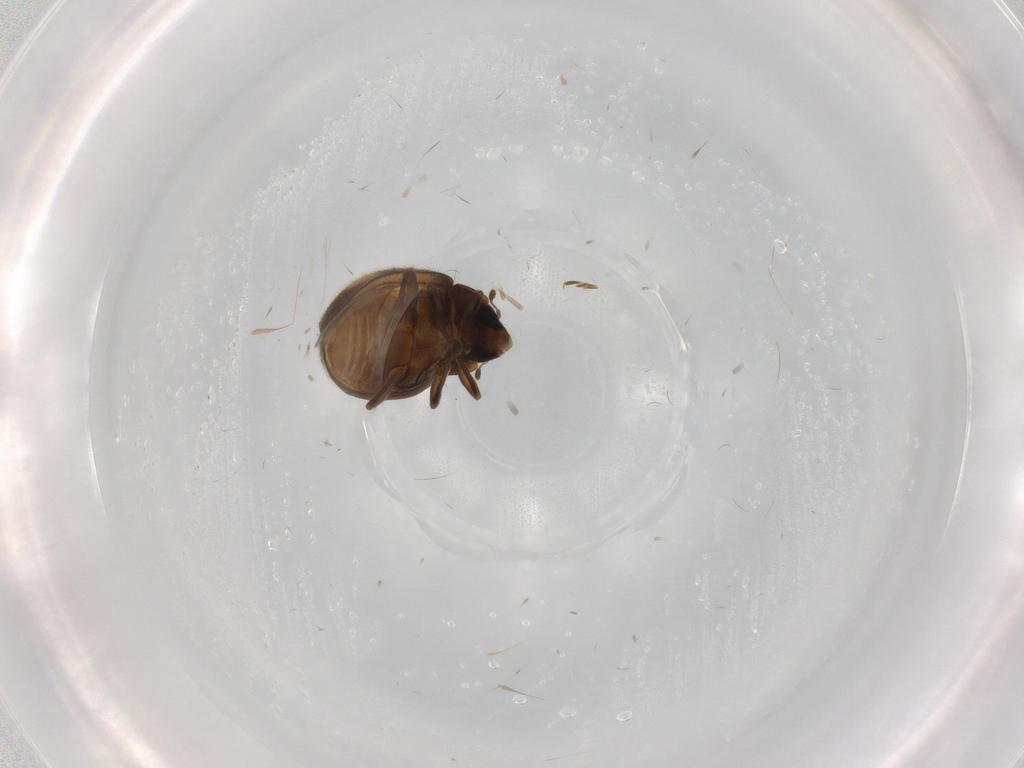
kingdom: Animalia
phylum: Arthropoda
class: Insecta
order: Coleoptera
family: Coccinellidae
